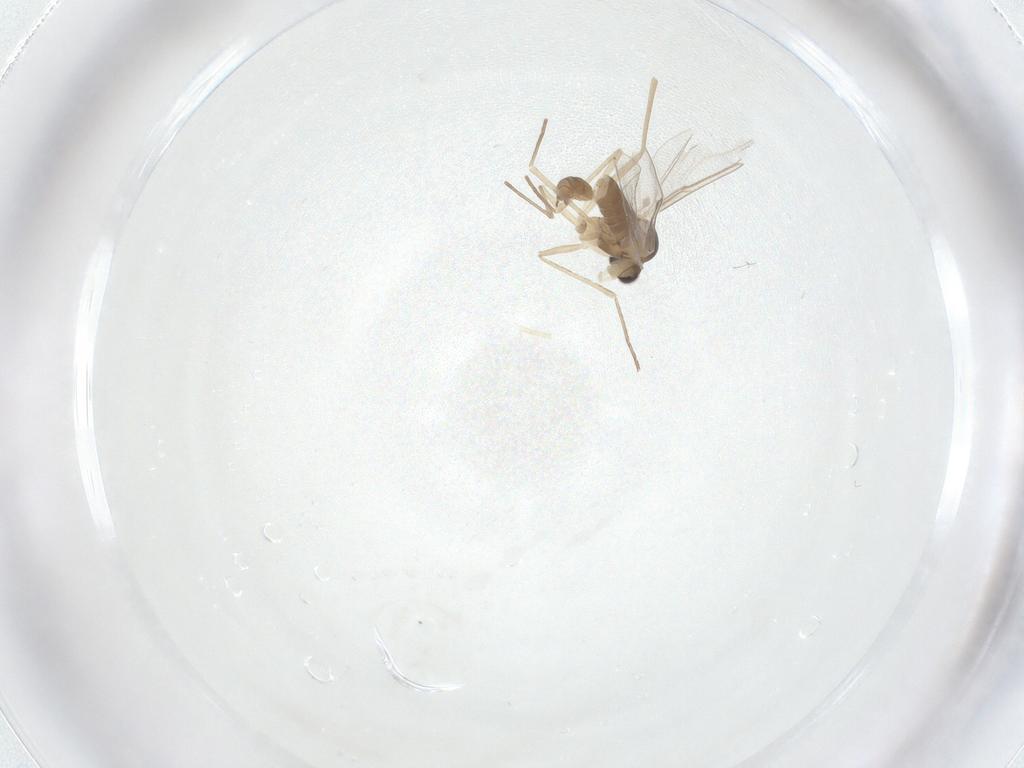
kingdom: Animalia
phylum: Arthropoda
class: Insecta
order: Diptera
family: Cecidomyiidae
